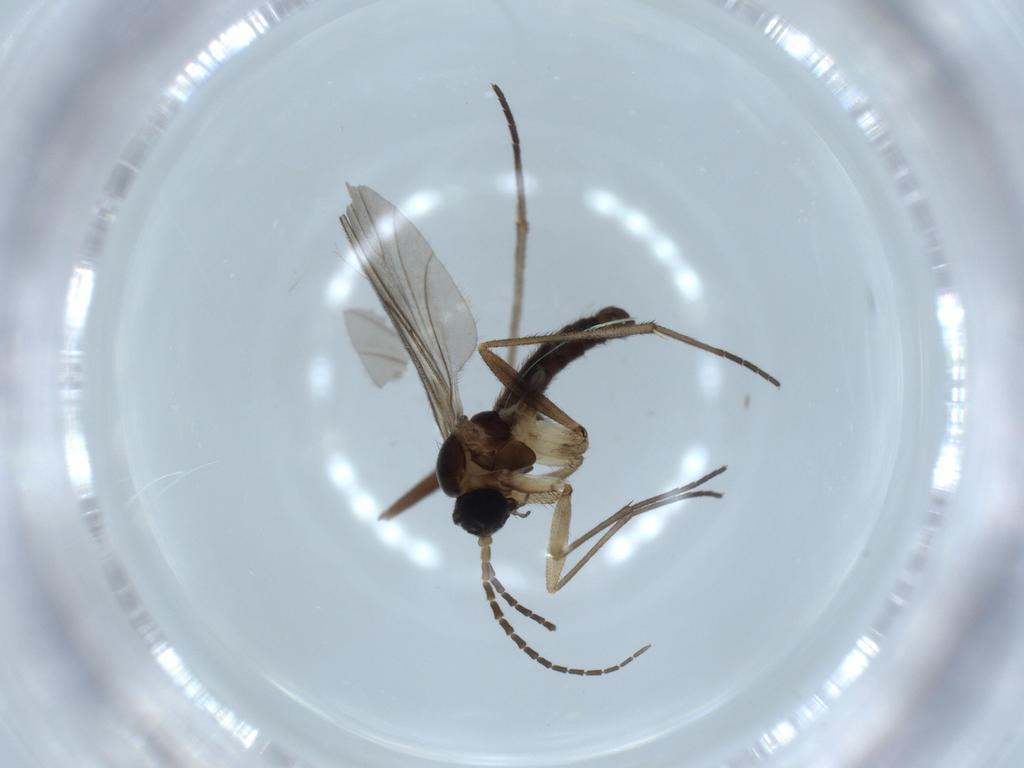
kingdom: Animalia
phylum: Arthropoda
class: Insecta
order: Diptera
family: Sciaridae
